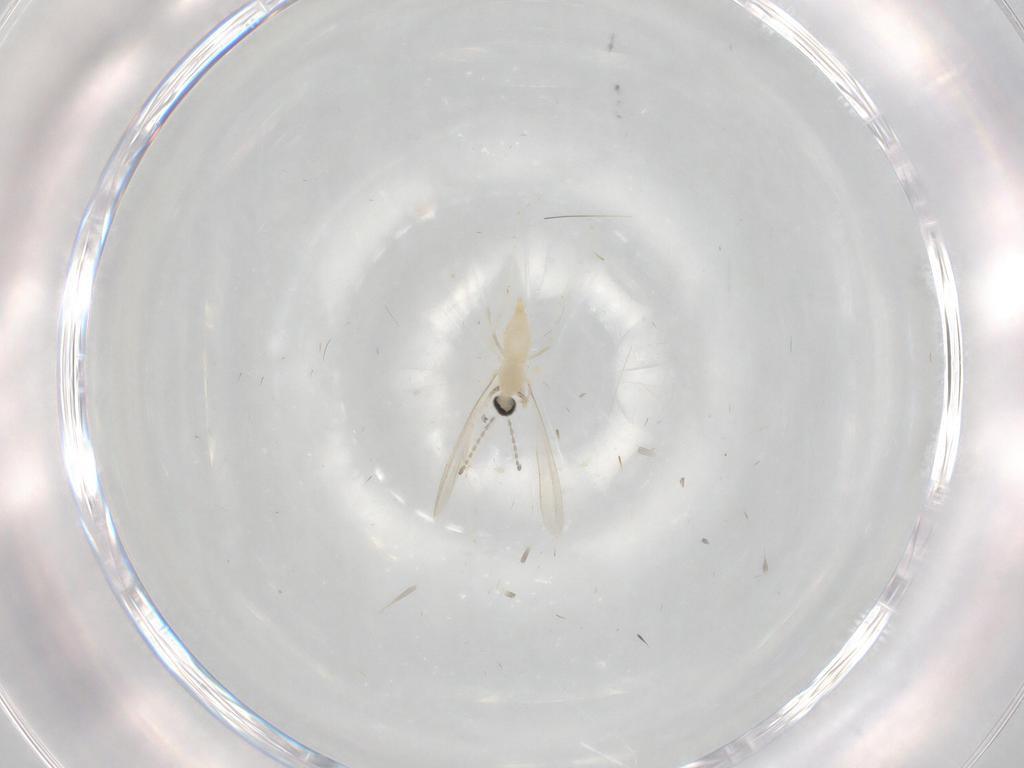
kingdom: Animalia
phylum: Arthropoda
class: Insecta
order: Diptera
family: Cecidomyiidae
